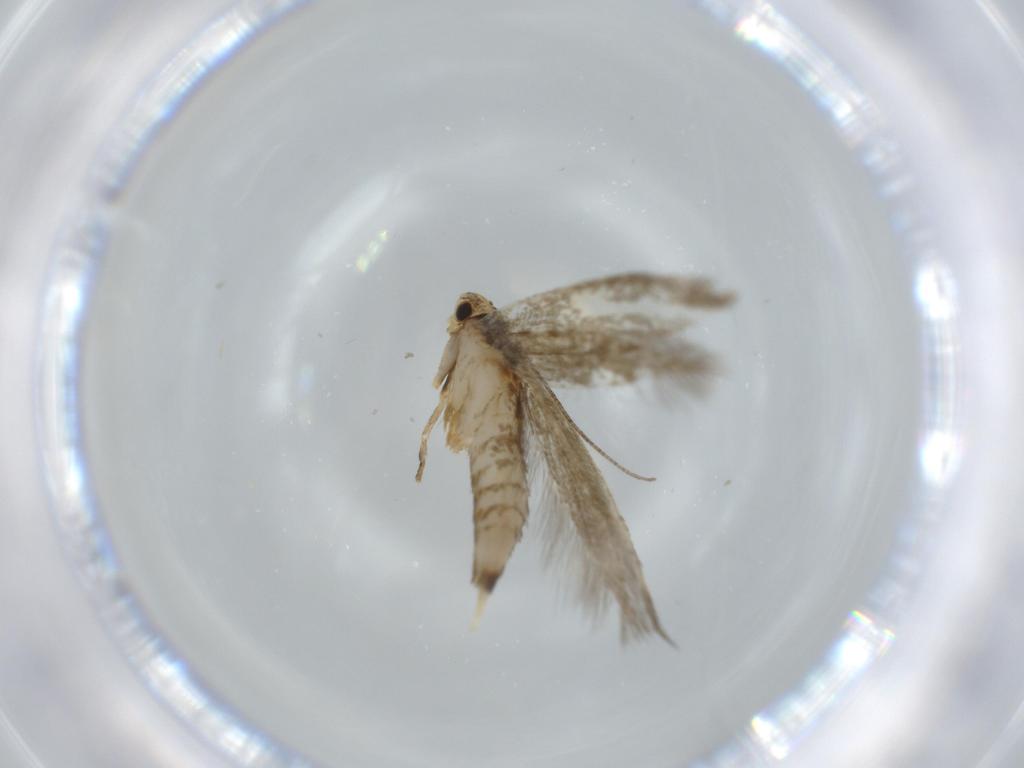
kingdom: Animalia
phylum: Arthropoda
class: Insecta
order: Lepidoptera
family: Tineidae
